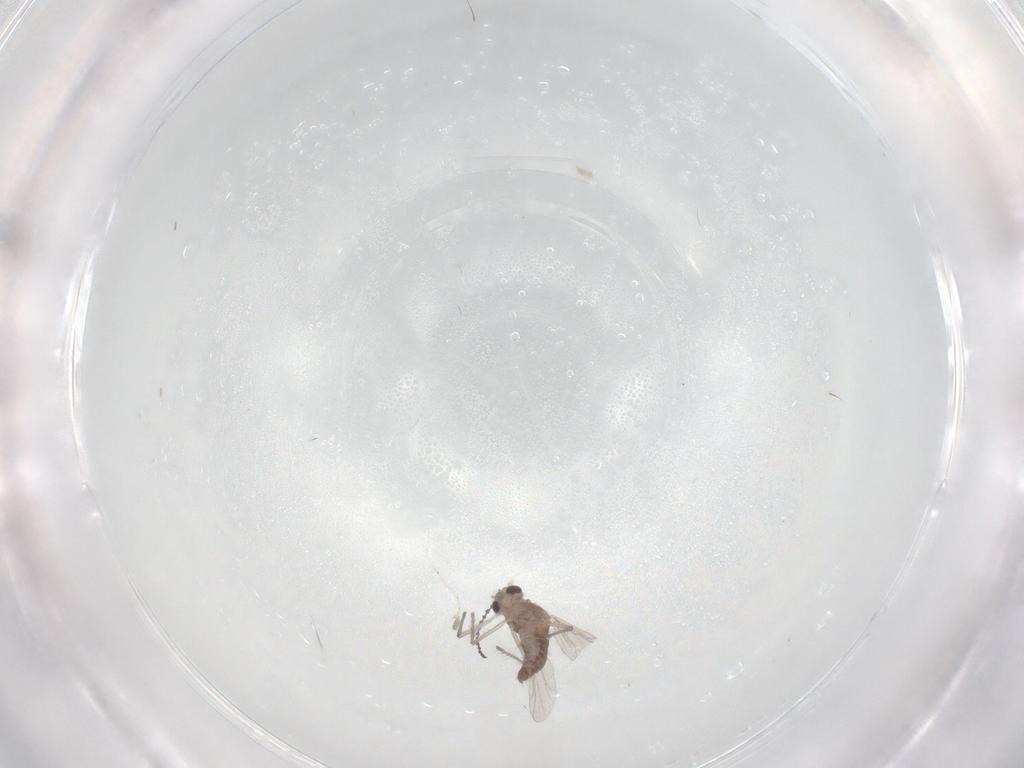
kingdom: Animalia
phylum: Arthropoda
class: Insecta
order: Diptera
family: Chironomidae
